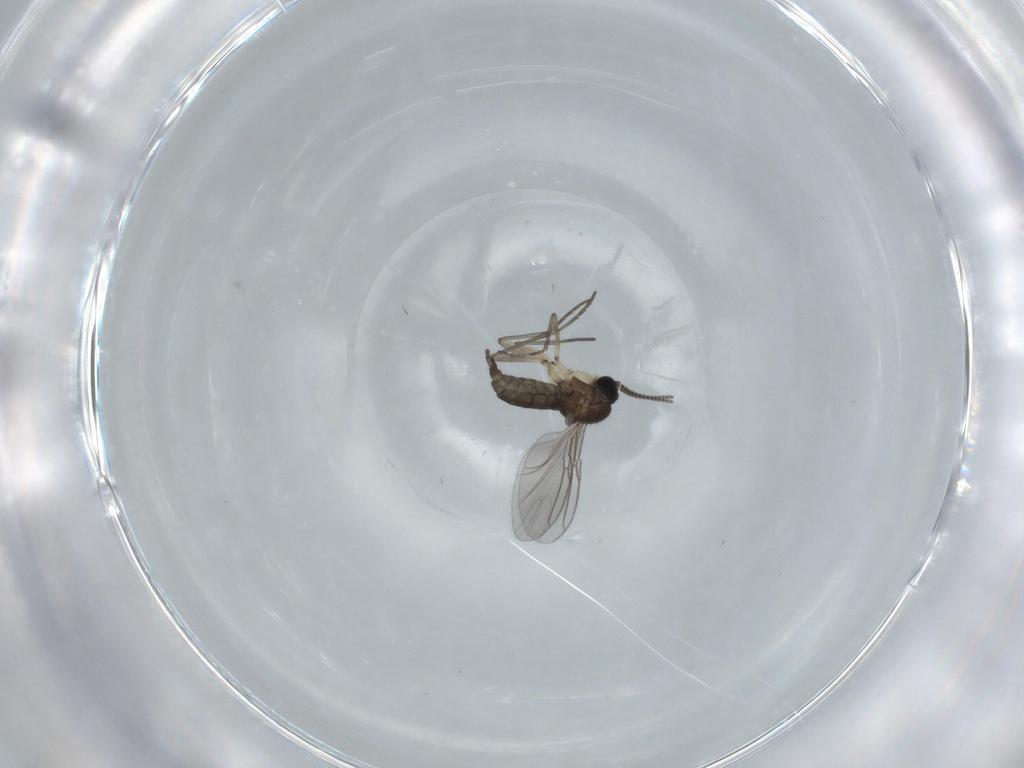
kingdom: Animalia
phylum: Arthropoda
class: Insecta
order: Diptera
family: Sciaridae
